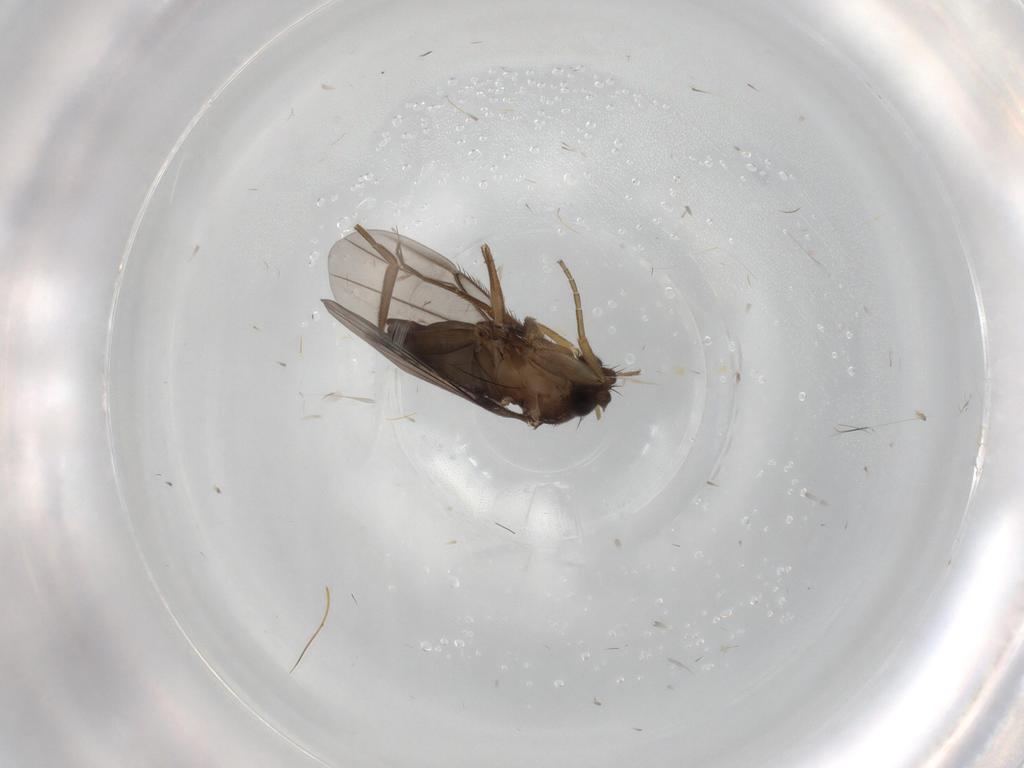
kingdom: Animalia
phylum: Arthropoda
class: Insecta
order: Diptera
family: Phoridae
